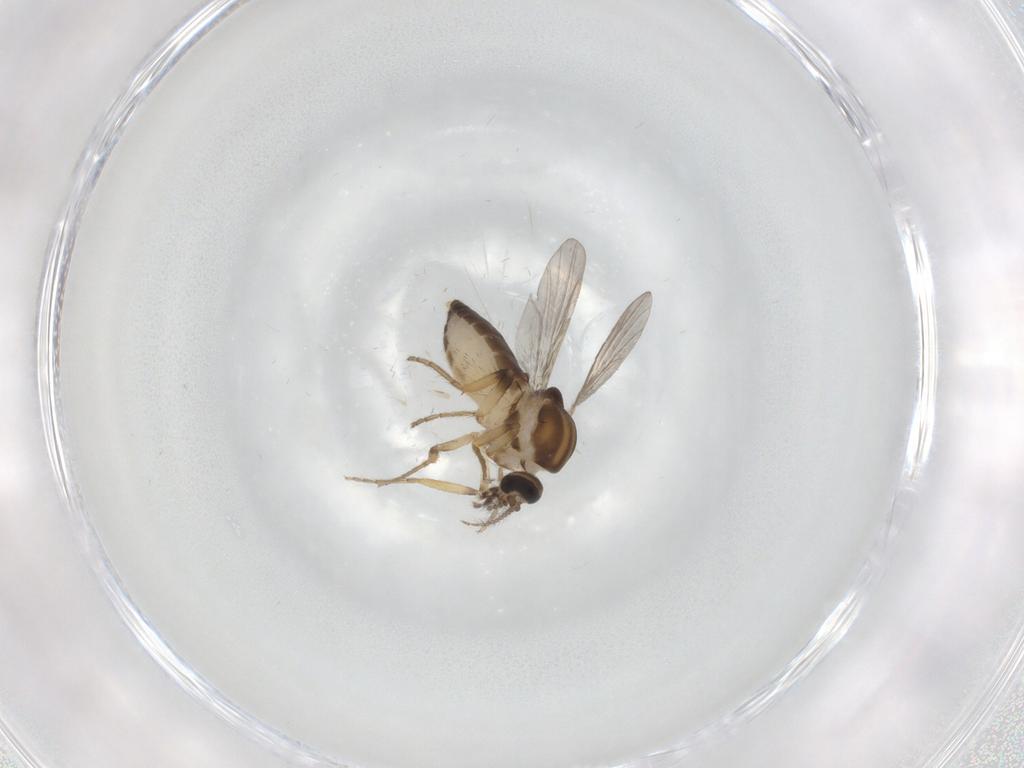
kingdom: Animalia
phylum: Arthropoda
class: Insecta
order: Diptera
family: Ceratopogonidae
